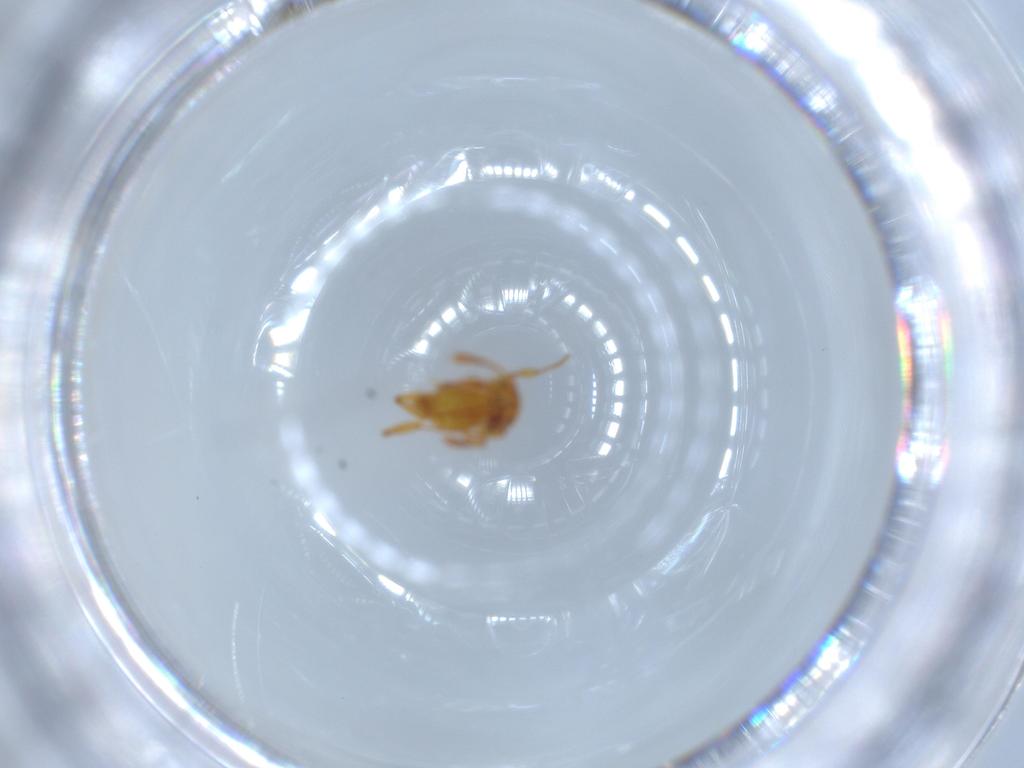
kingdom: Animalia
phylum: Arthropoda
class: Insecta
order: Hymenoptera
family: Formicidae
